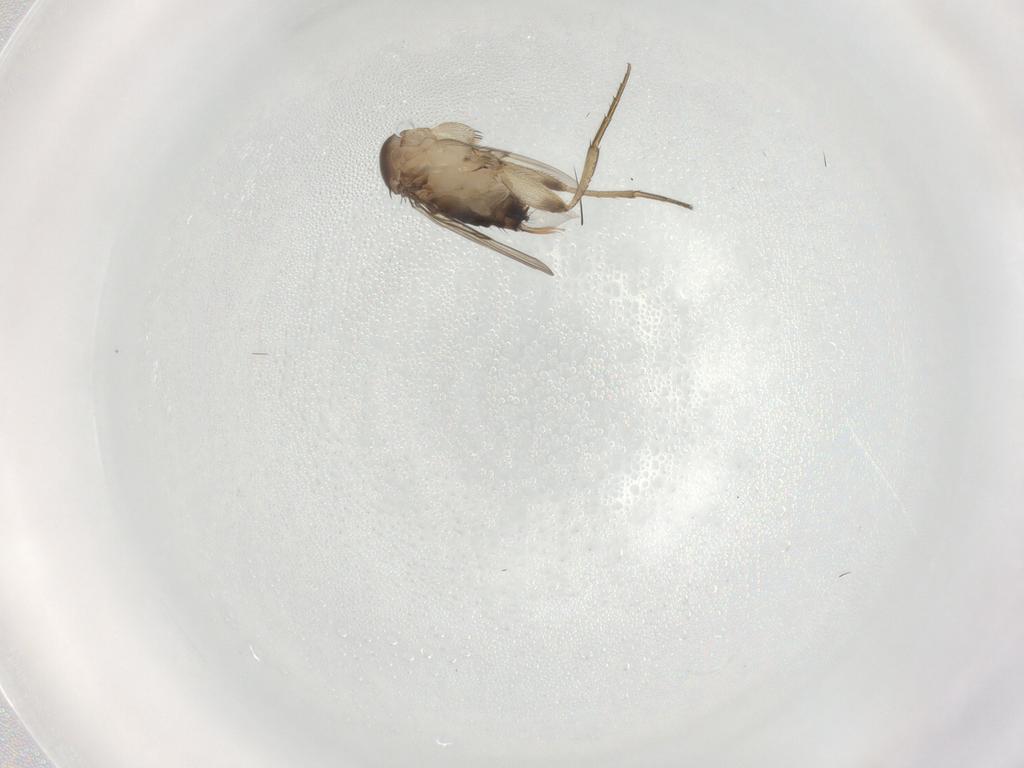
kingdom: Animalia
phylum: Arthropoda
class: Insecta
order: Diptera
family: Phoridae
